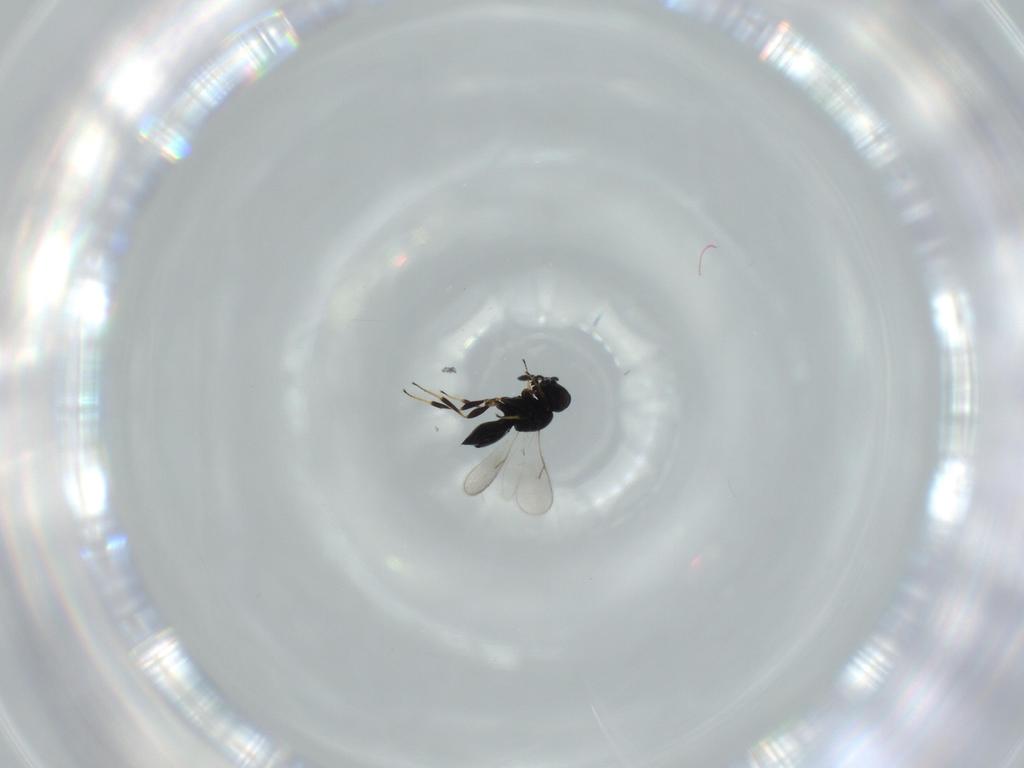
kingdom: Animalia
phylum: Arthropoda
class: Insecta
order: Hymenoptera
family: Scelionidae
